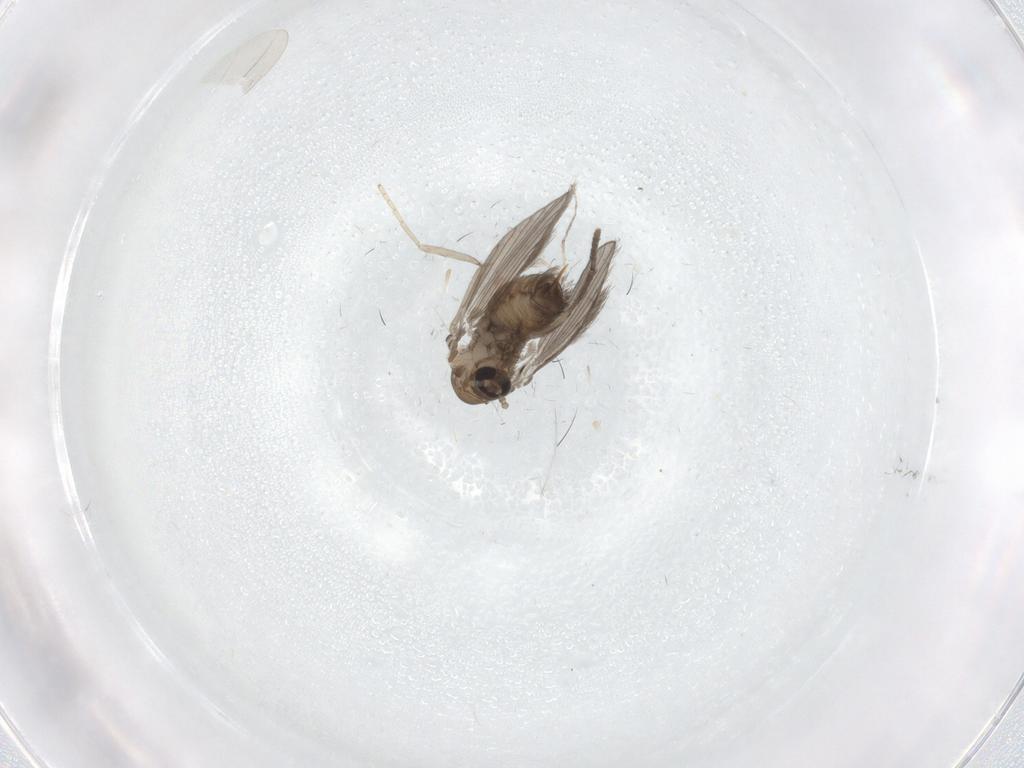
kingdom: Animalia
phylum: Arthropoda
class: Insecta
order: Diptera
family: Cecidomyiidae
